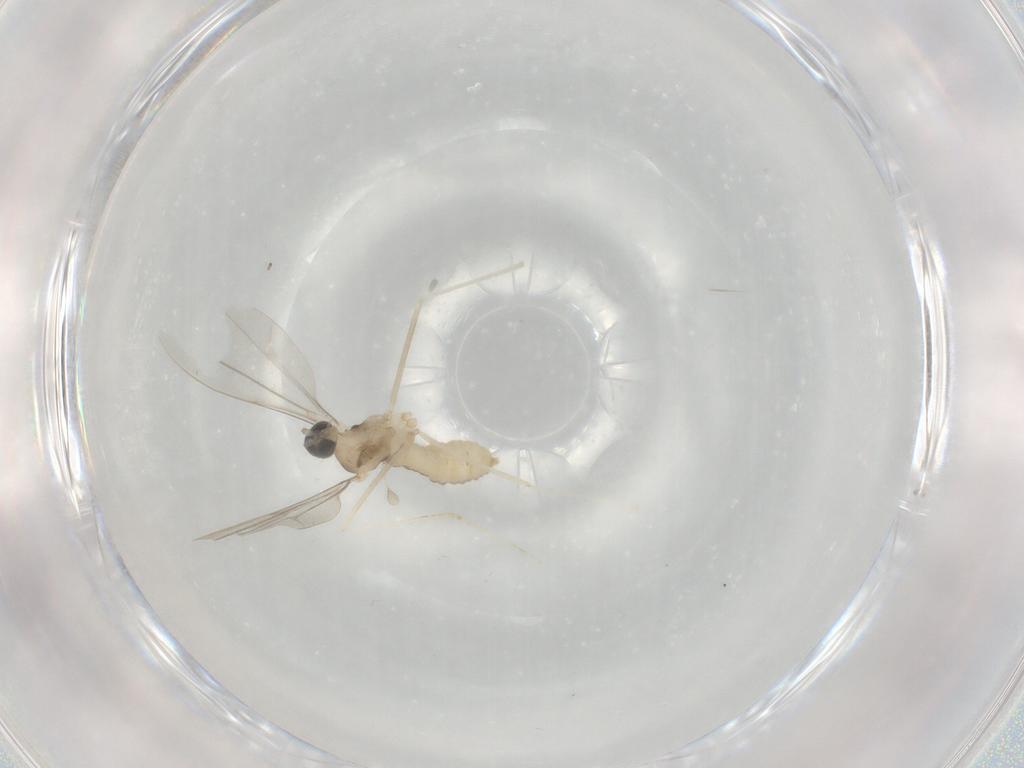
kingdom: Animalia
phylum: Arthropoda
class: Insecta
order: Diptera
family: Cecidomyiidae
